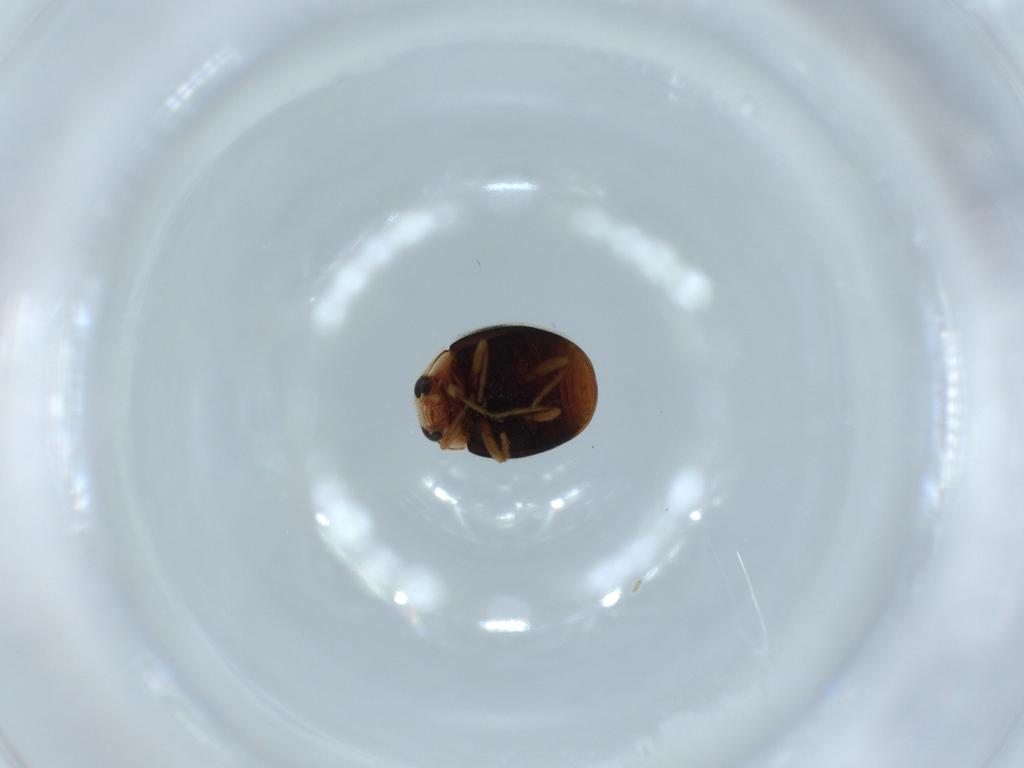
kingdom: Animalia
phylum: Arthropoda
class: Insecta
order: Coleoptera
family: Coccinellidae
